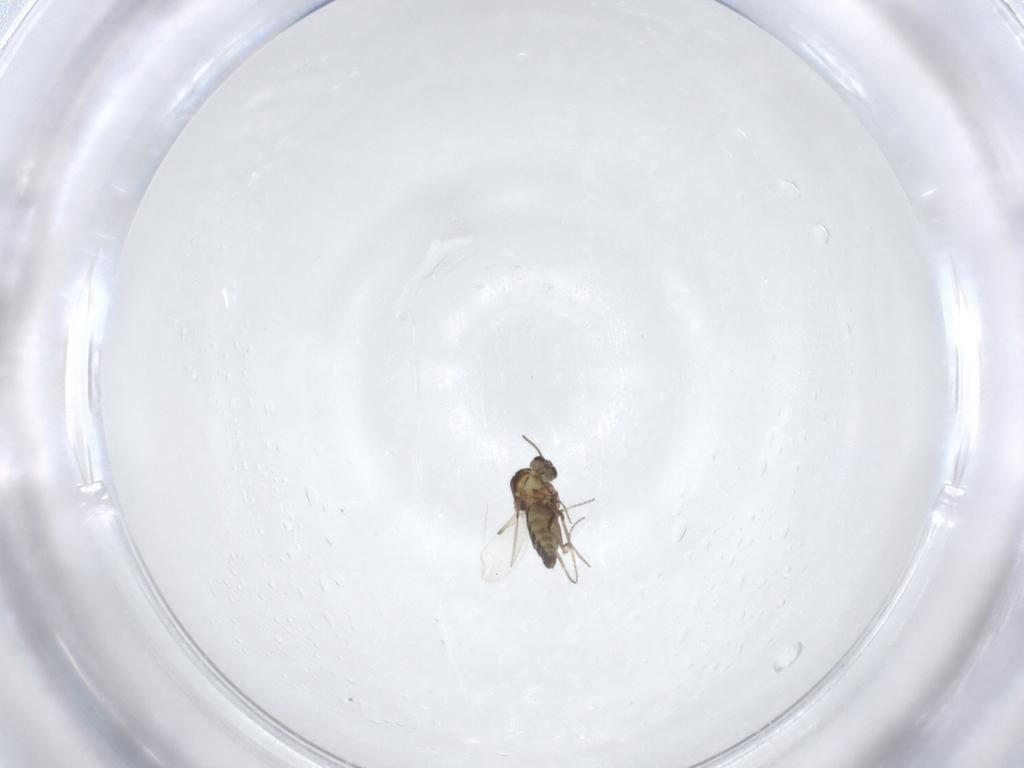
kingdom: Animalia
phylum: Arthropoda
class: Insecta
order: Diptera
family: Ceratopogonidae
